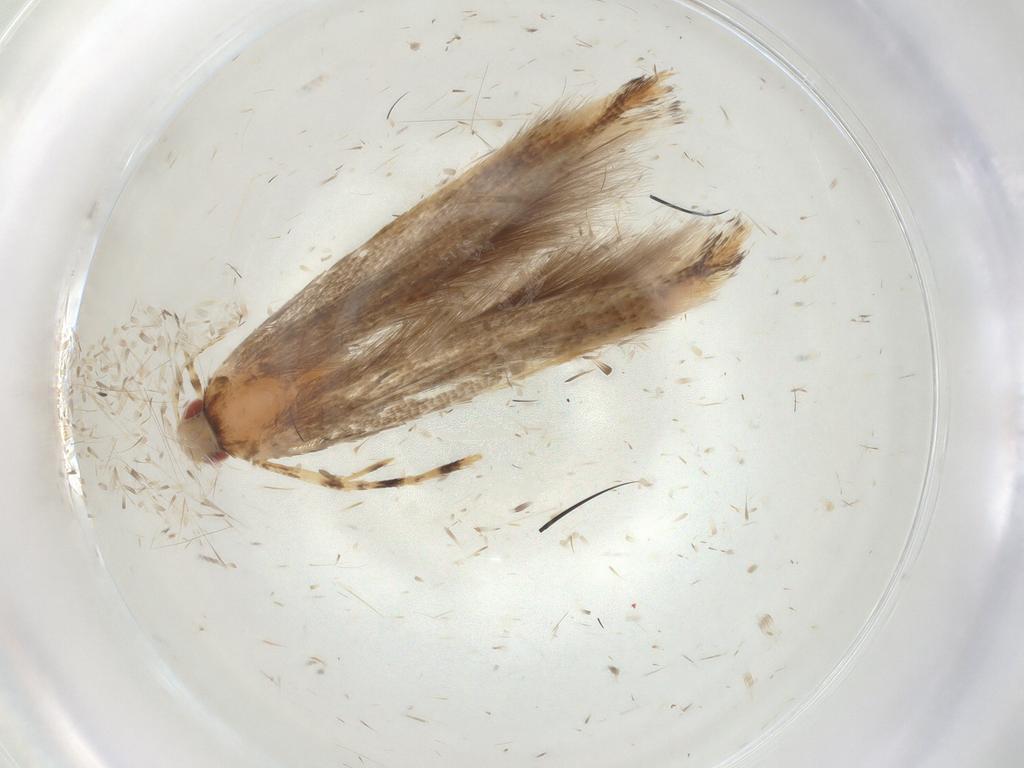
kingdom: Animalia
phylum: Arthropoda
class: Insecta
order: Diptera
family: Cecidomyiidae
